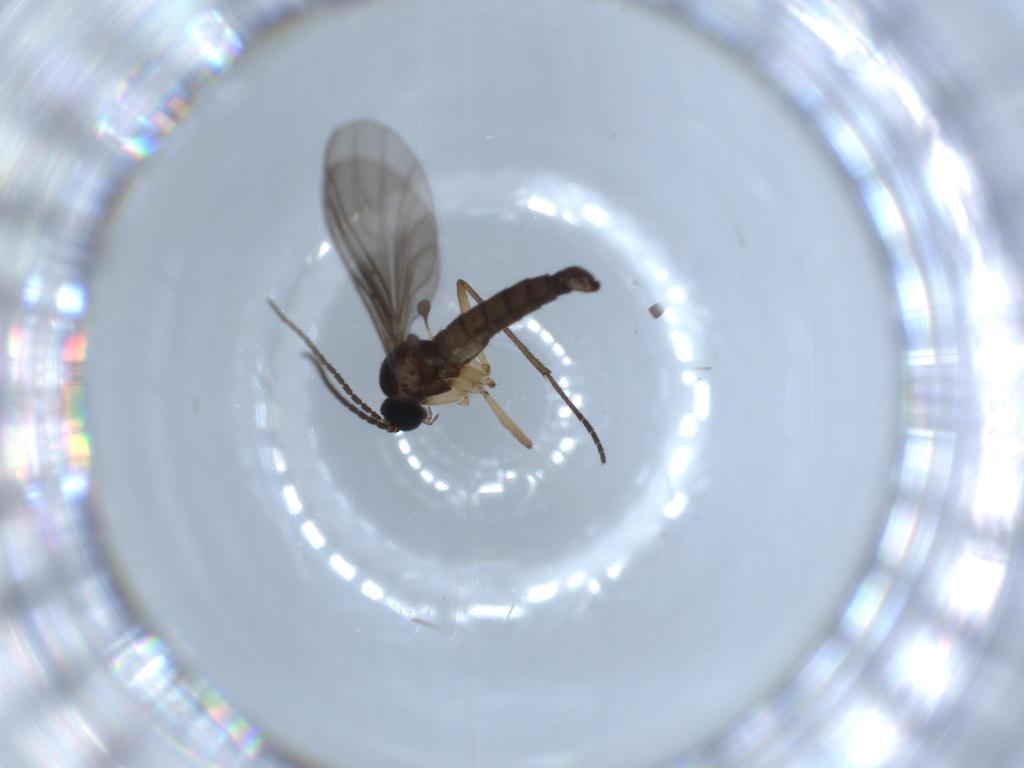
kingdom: Animalia
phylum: Arthropoda
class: Insecta
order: Diptera
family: Sciaridae
